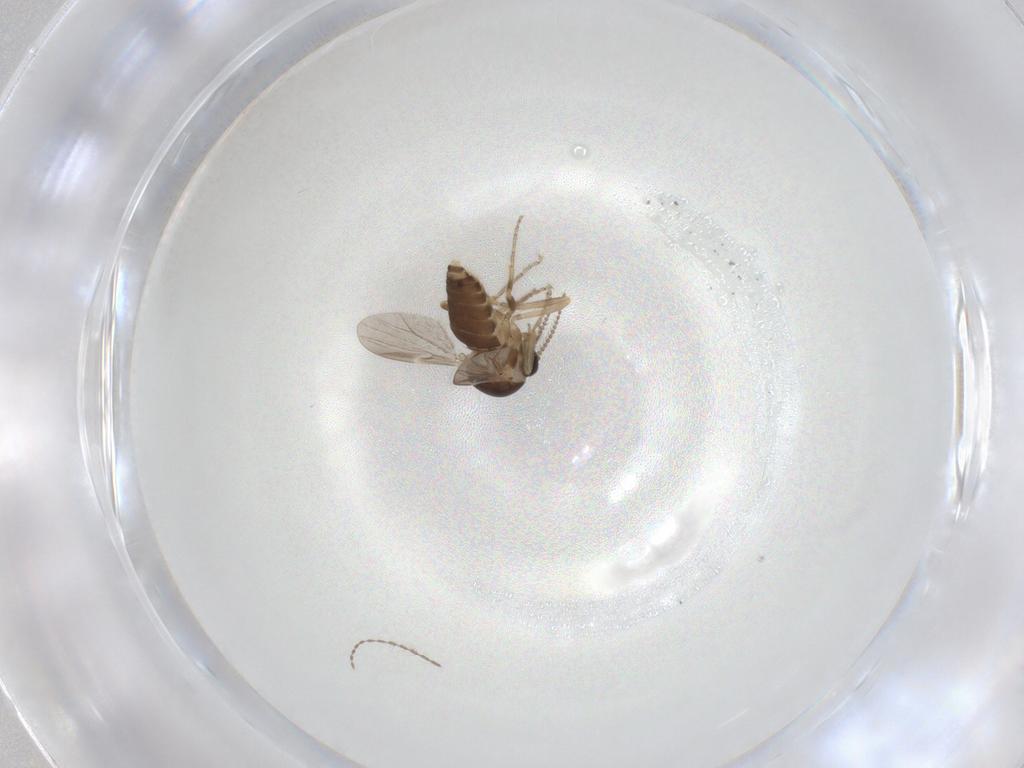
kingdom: Animalia
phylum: Arthropoda
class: Insecta
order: Diptera
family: Ceratopogonidae
